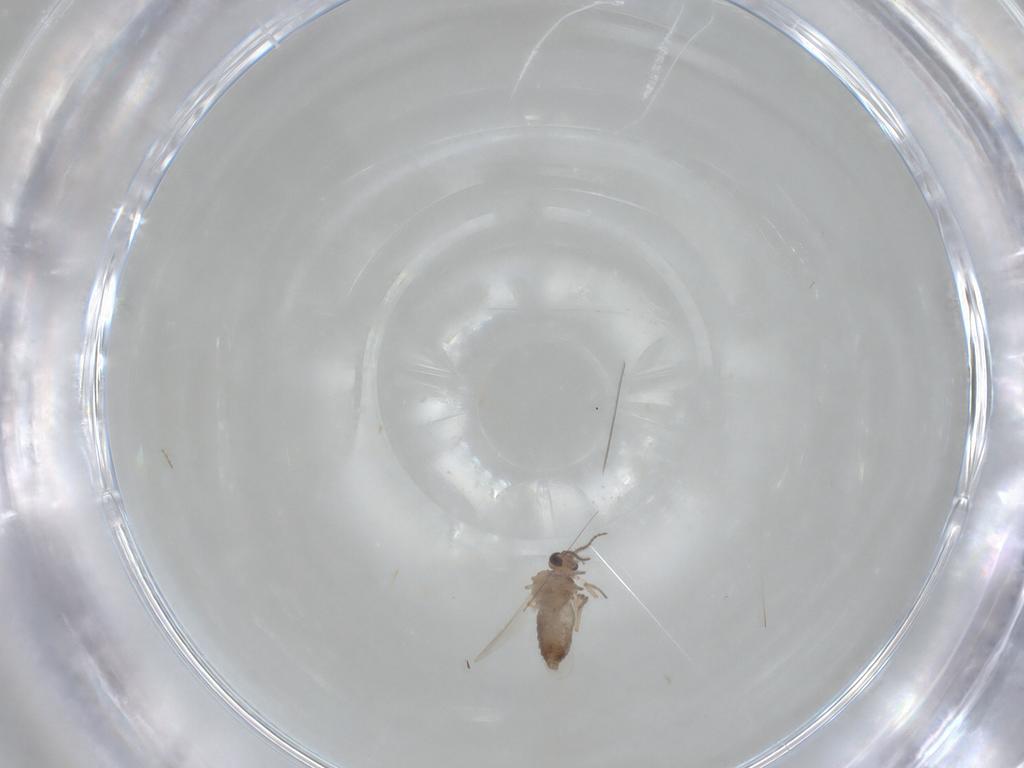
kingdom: Animalia
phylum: Arthropoda
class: Insecta
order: Diptera
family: Ceratopogonidae
